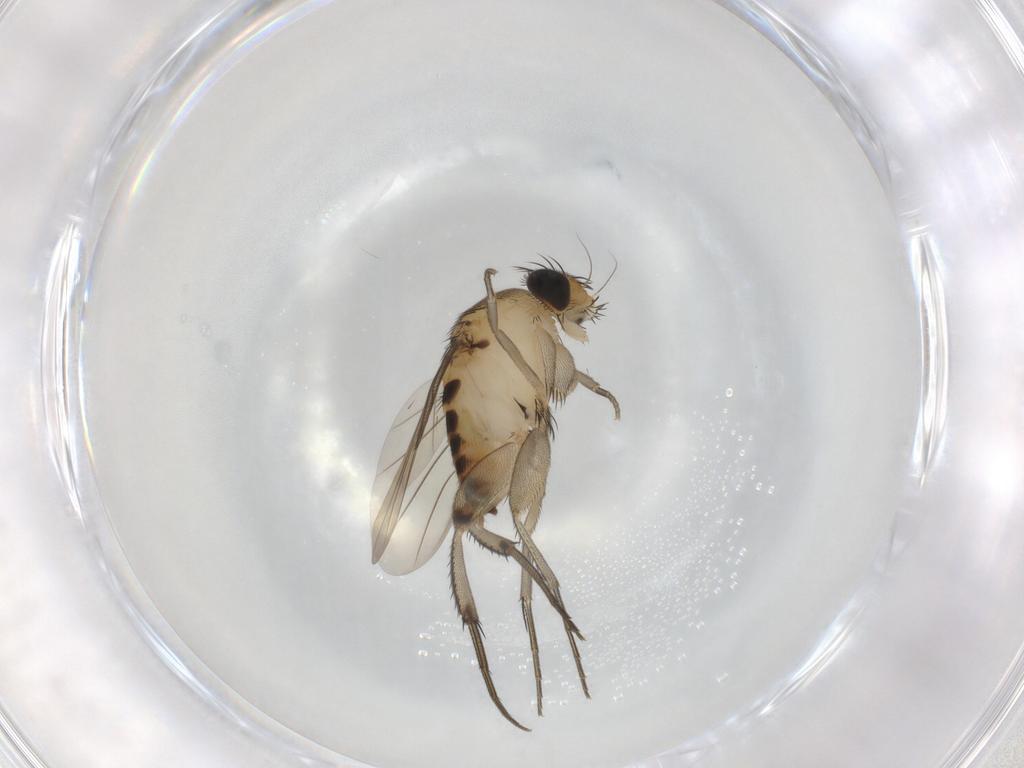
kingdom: Animalia
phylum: Arthropoda
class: Insecta
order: Diptera
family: Phoridae
